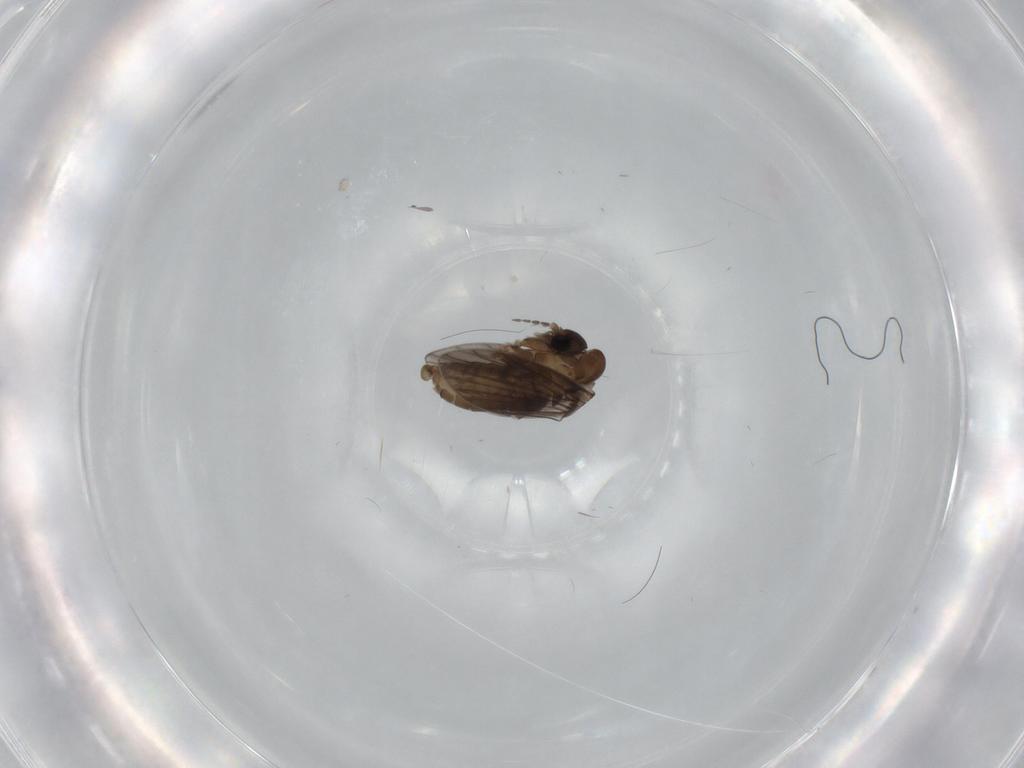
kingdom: Animalia
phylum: Arthropoda
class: Insecta
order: Diptera
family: Psychodidae
